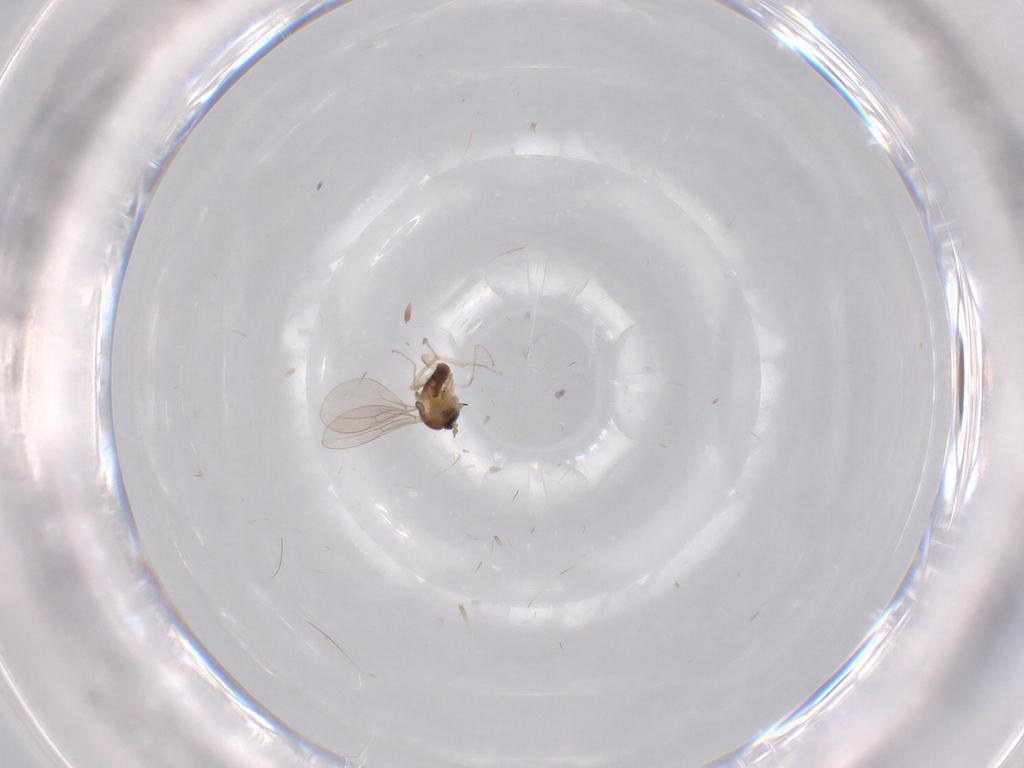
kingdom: Animalia
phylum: Arthropoda
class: Insecta
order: Diptera
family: Cecidomyiidae
